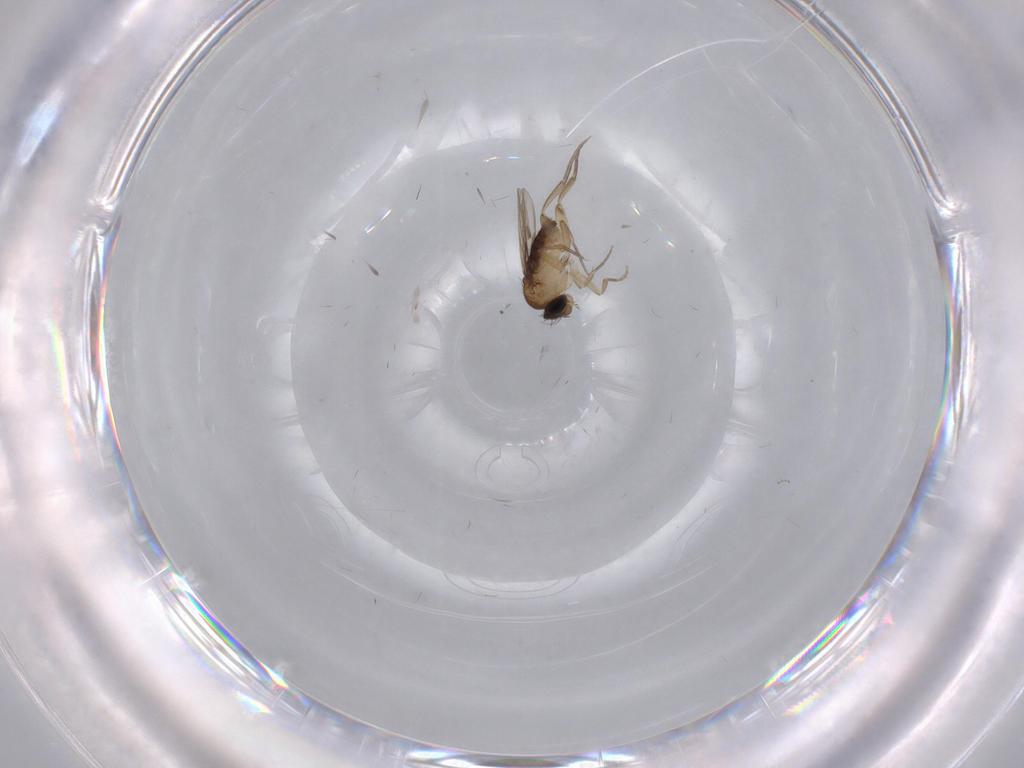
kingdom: Animalia
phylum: Arthropoda
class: Insecta
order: Diptera
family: Phoridae
